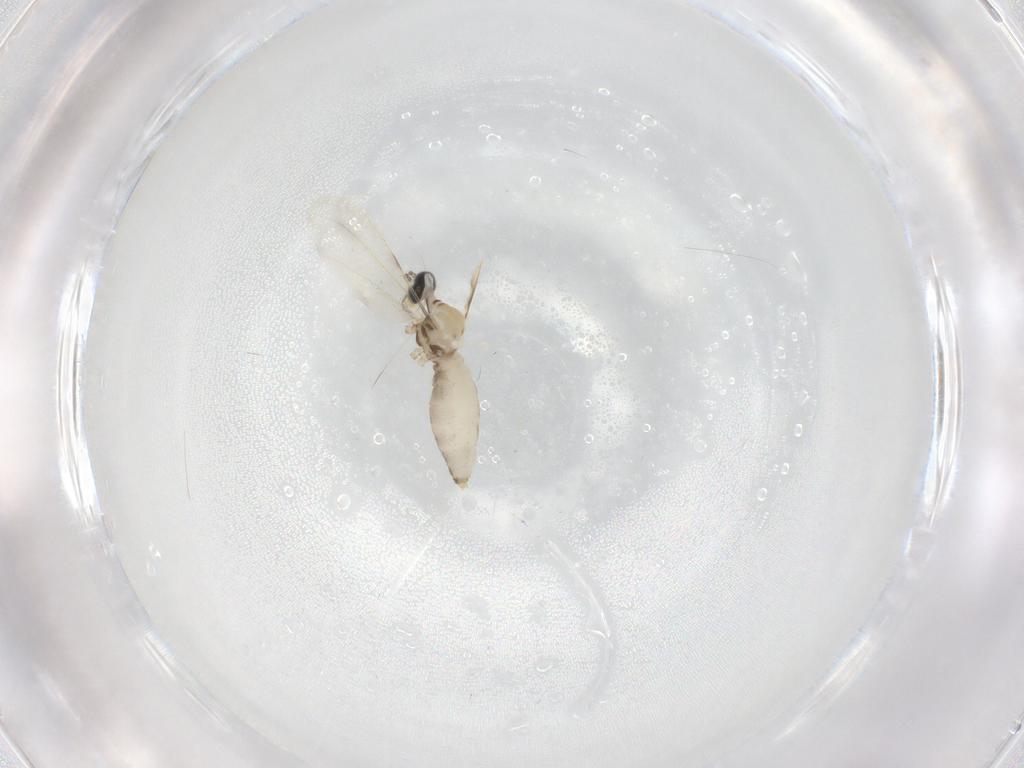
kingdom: Animalia
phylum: Arthropoda
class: Insecta
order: Diptera
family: Cecidomyiidae
